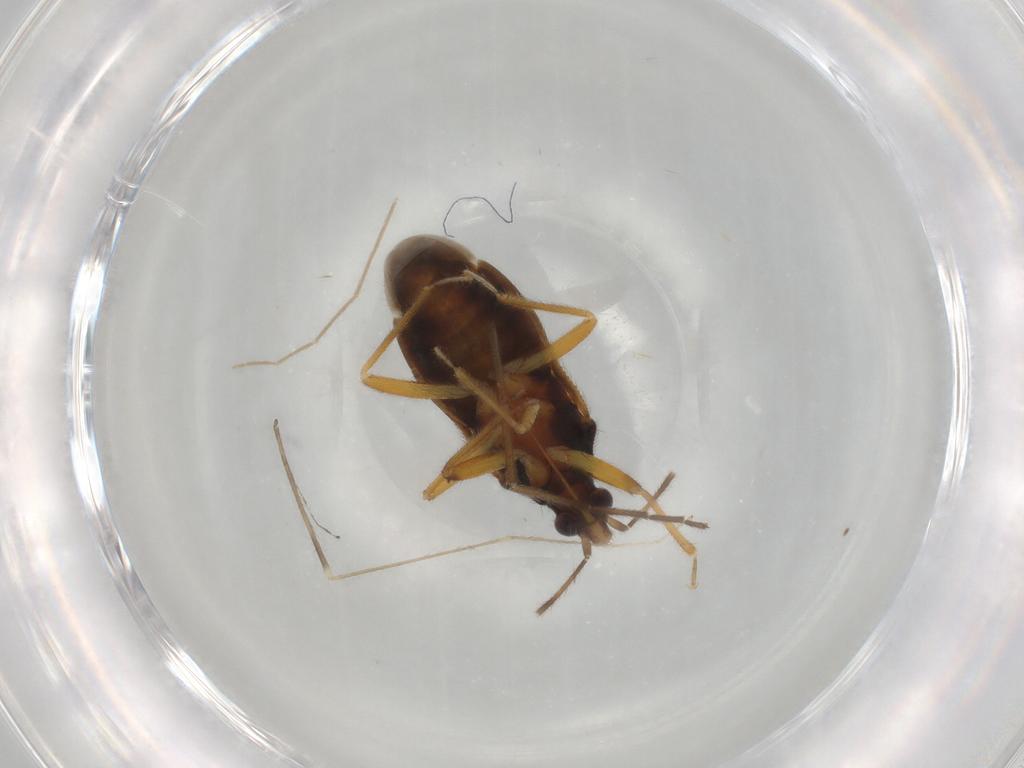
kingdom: Animalia
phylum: Arthropoda
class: Insecta
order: Hemiptera
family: Anthocoridae
